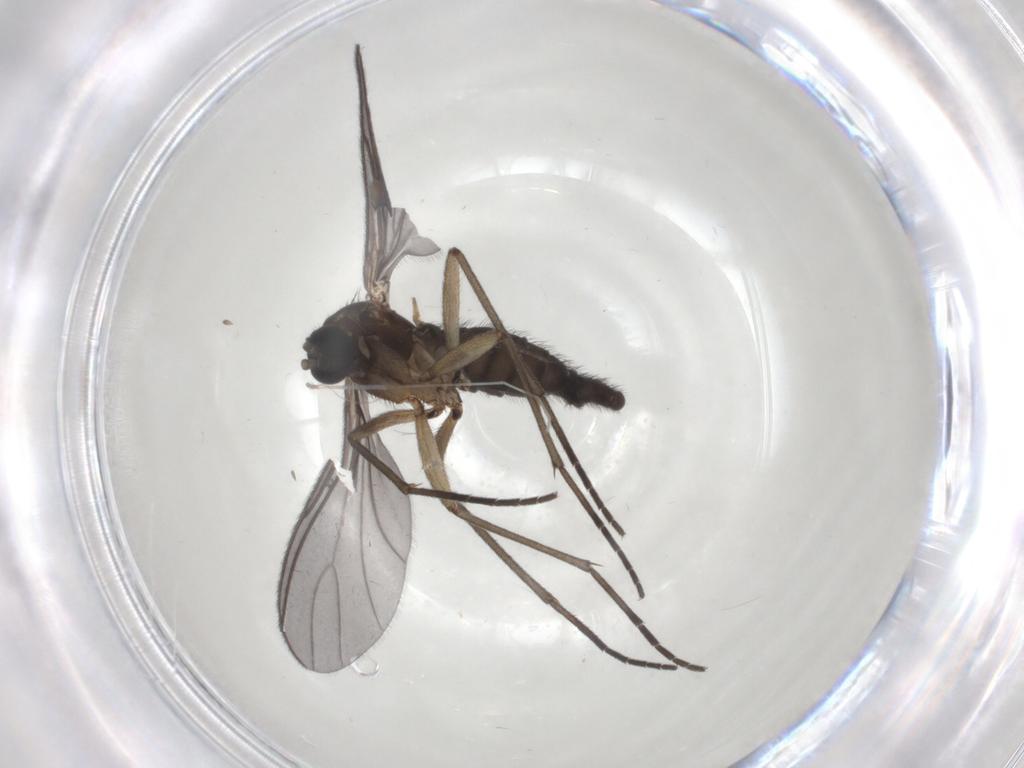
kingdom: Animalia
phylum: Arthropoda
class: Insecta
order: Diptera
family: Sciaridae
